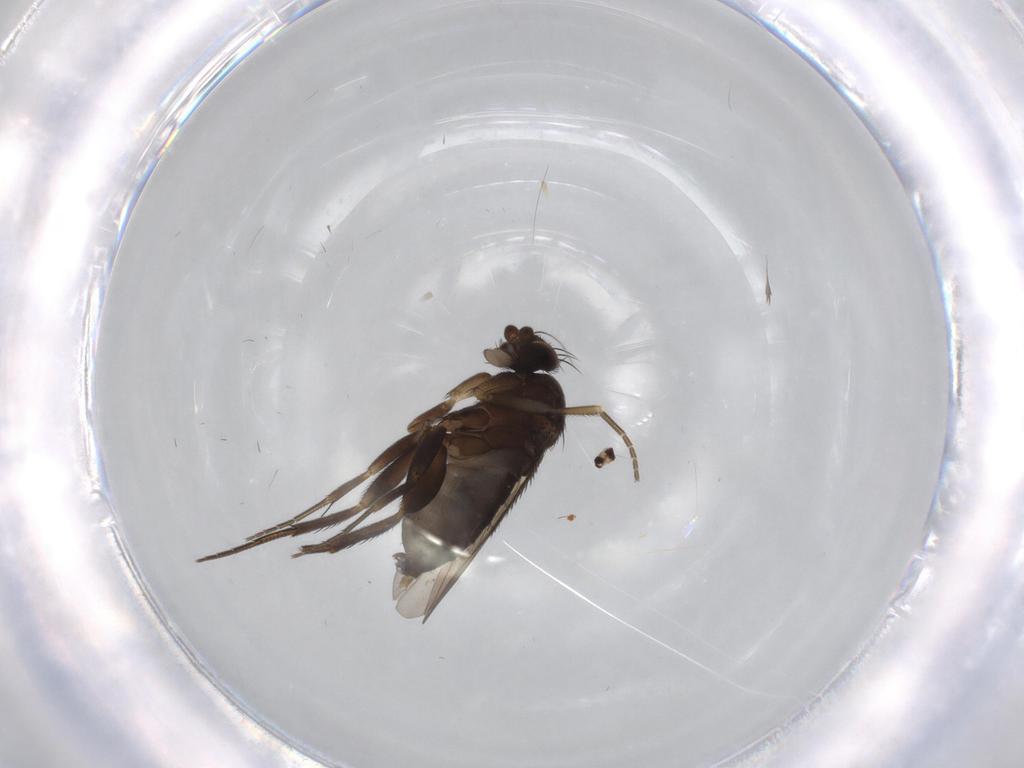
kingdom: Animalia
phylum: Arthropoda
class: Insecta
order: Diptera
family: Phoridae
